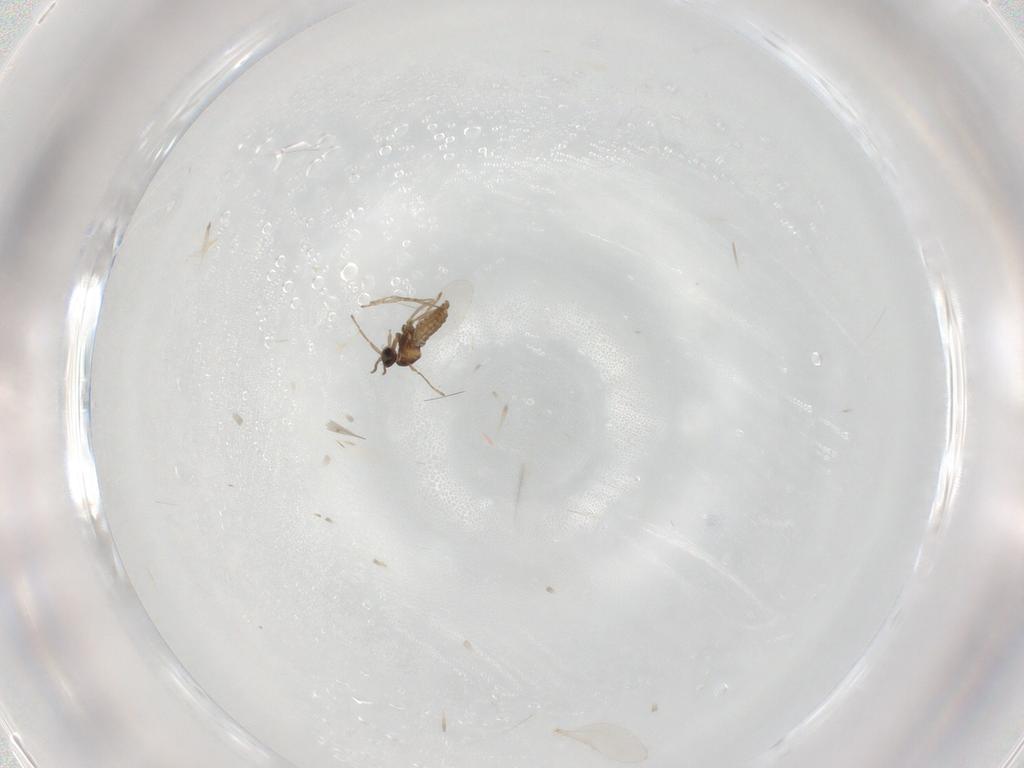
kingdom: Animalia
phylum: Arthropoda
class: Insecta
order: Diptera
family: Cecidomyiidae
